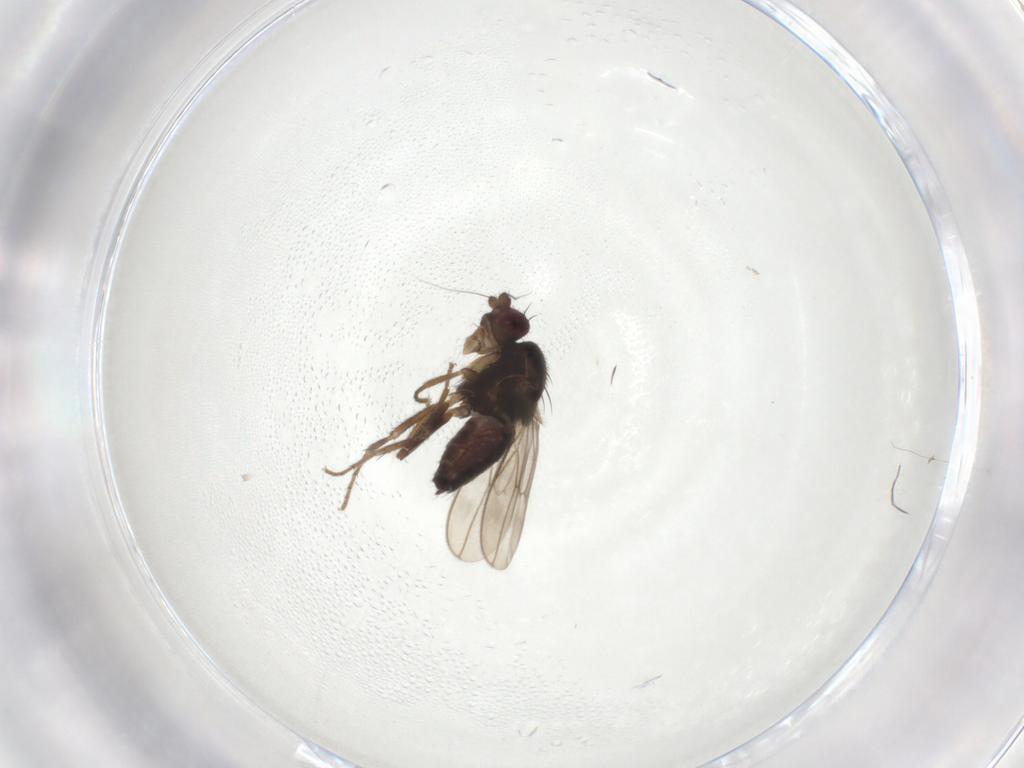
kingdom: Animalia
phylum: Arthropoda
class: Insecta
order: Diptera
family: Sphaeroceridae
